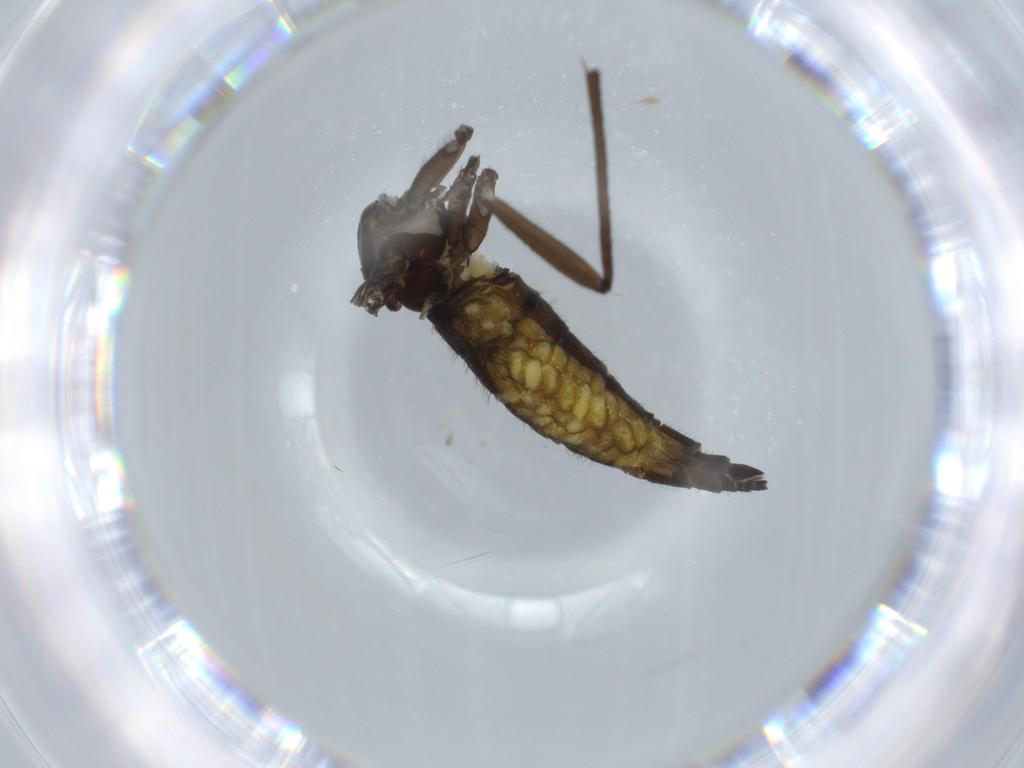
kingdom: Animalia
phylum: Arthropoda
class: Insecta
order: Diptera
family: Sciaridae
